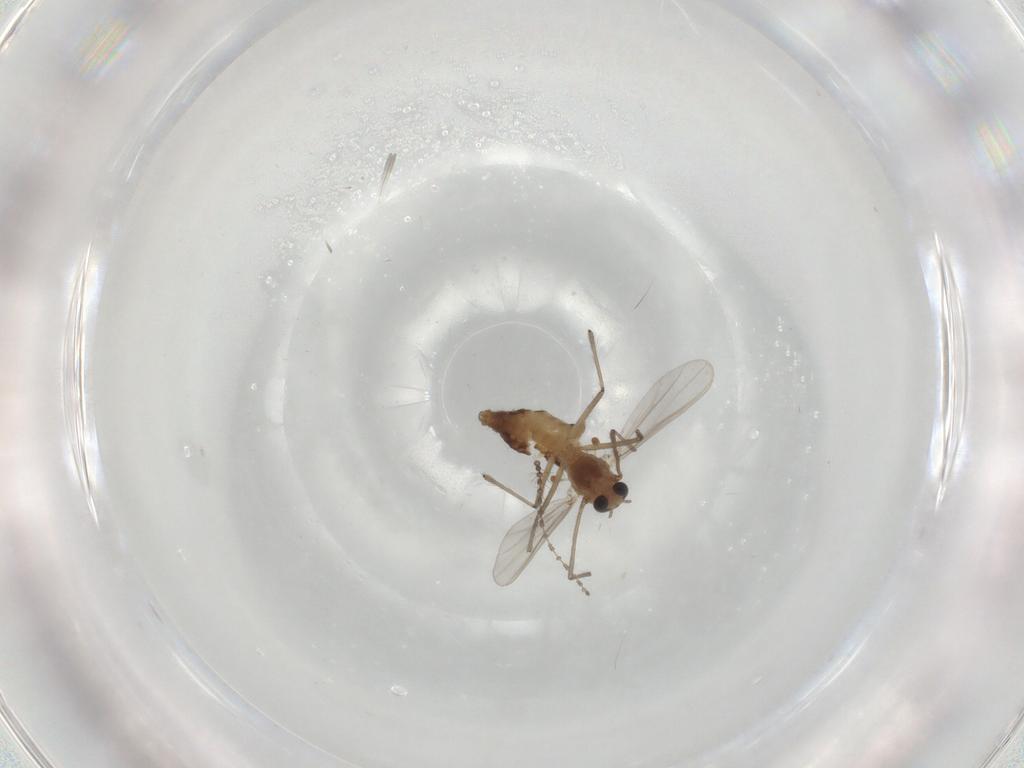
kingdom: Animalia
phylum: Arthropoda
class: Insecta
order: Diptera
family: Chironomidae
